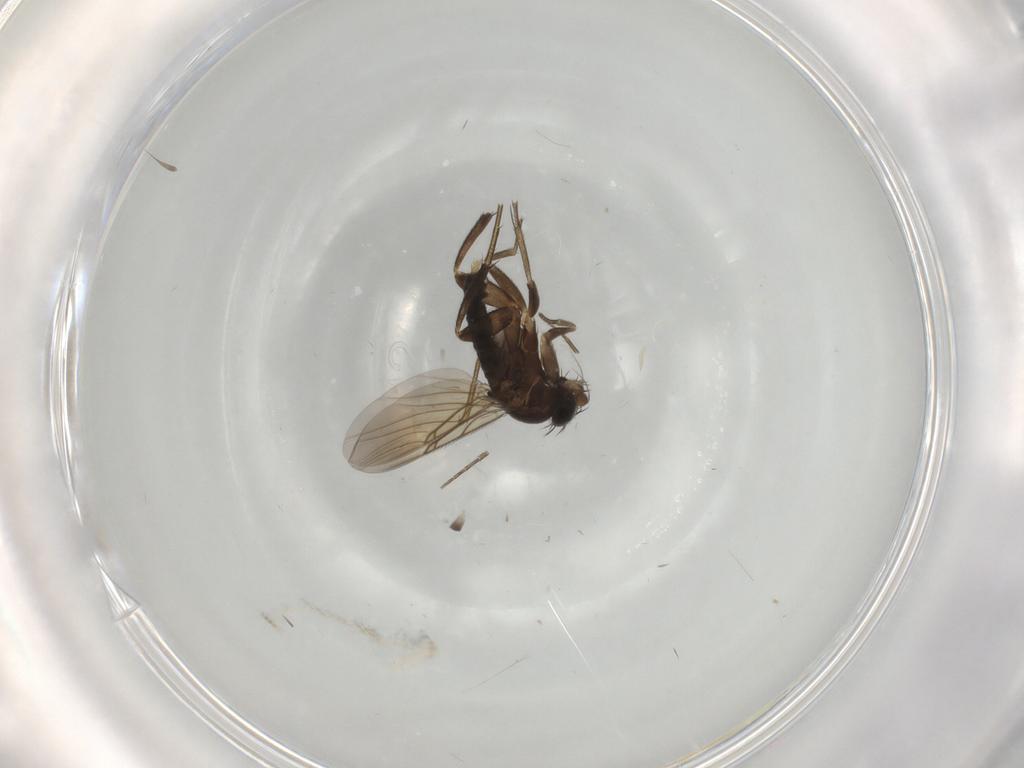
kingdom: Animalia
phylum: Arthropoda
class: Insecta
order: Diptera
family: Phoridae
